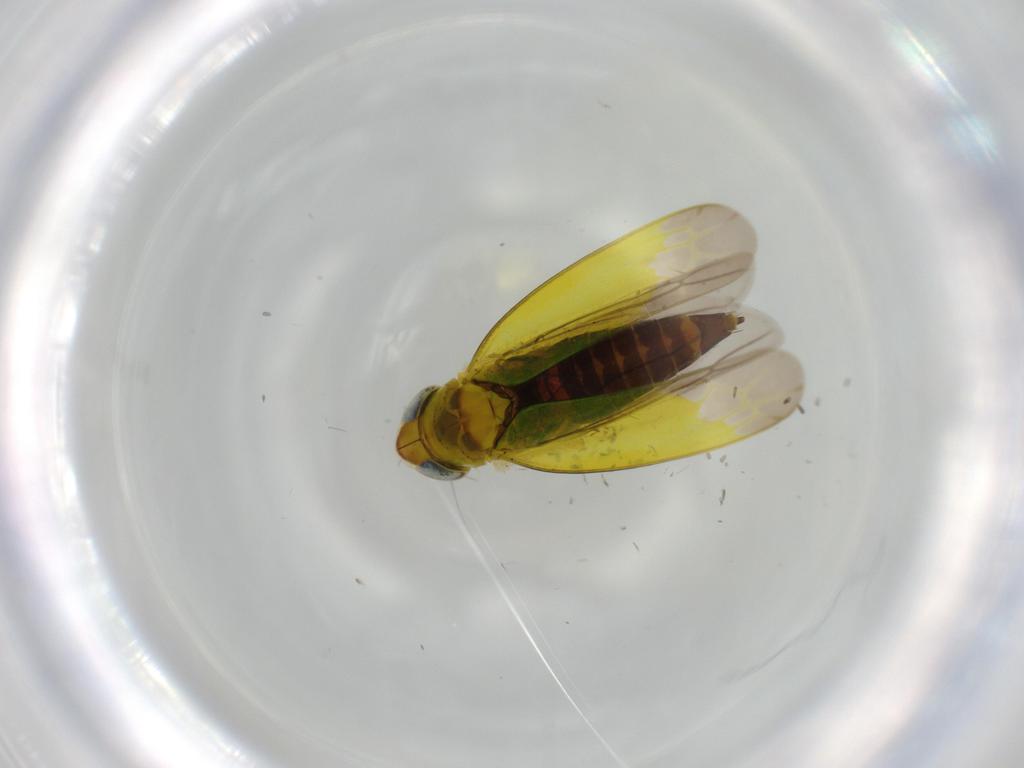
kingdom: Animalia
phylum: Arthropoda
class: Insecta
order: Hemiptera
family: Cicadellidae
